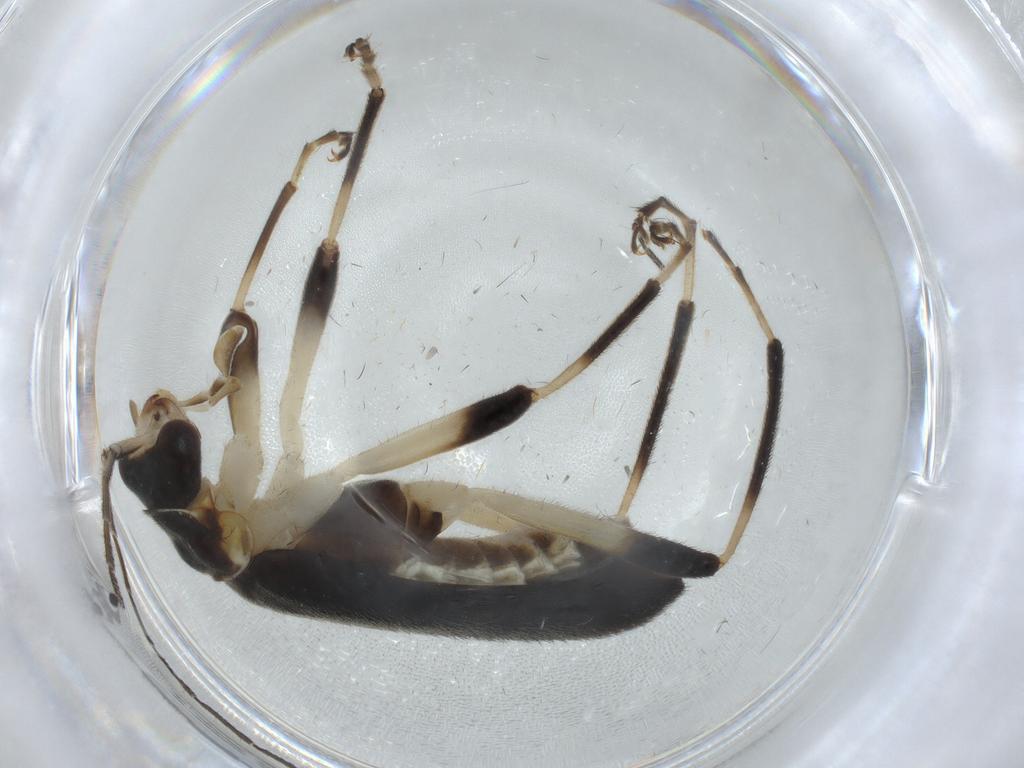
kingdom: Animalia
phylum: Arthropoda
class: Insecta
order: Coleoptera
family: Cantharidae
